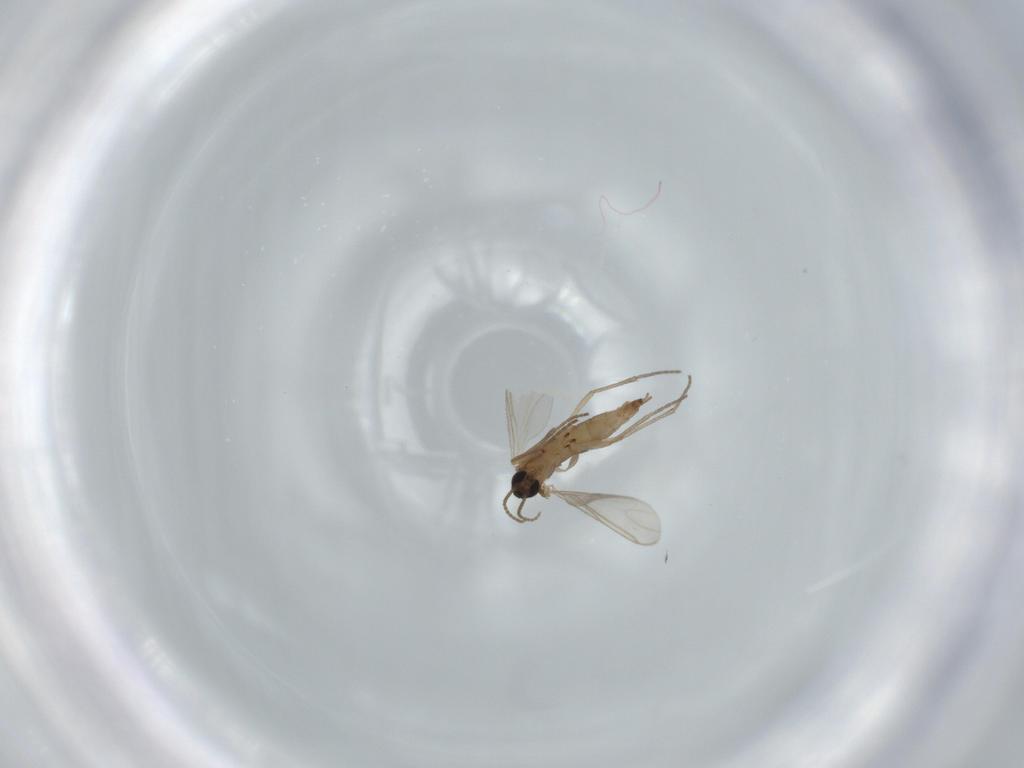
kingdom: Animalia
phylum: Arthropoda
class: Insecta
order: Diptera
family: Sciaridae
